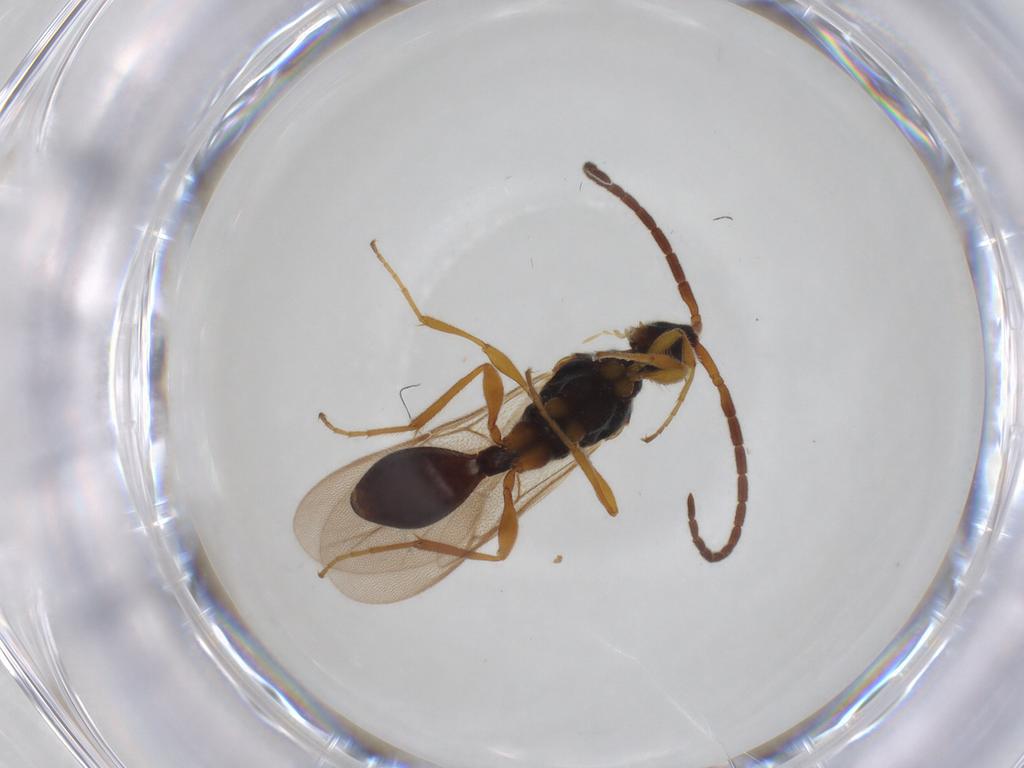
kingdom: Animalia
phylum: Arthropoda
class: Insecta
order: Hymenoptera
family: Diapriidae
